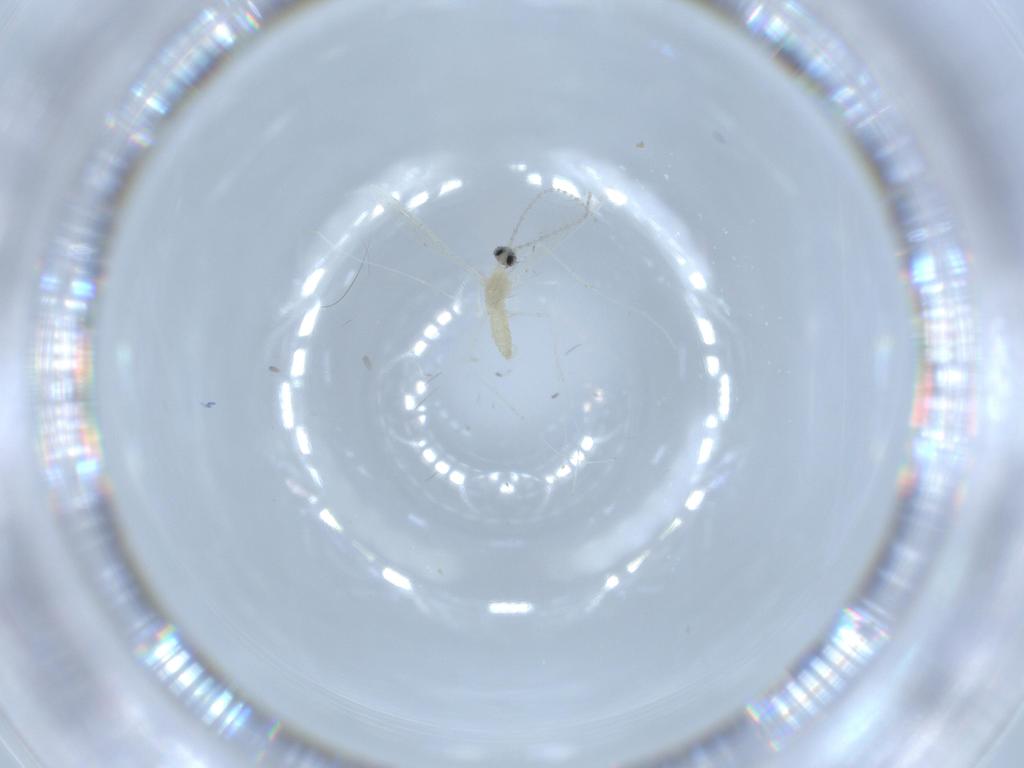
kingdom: Animalia
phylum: Arthropoda
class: Insecta
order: Diptera
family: Cecidomyiidae
